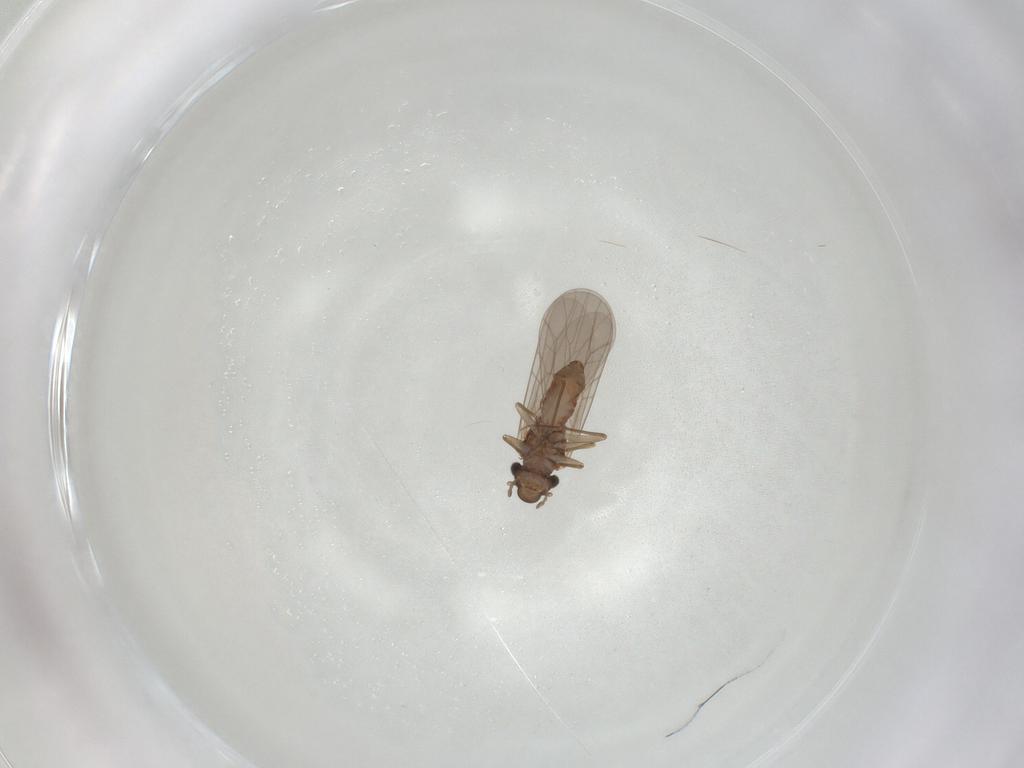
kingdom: Animalia
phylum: Arthropoda
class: Insecta
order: Psocodea
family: Lepidopsocidae
